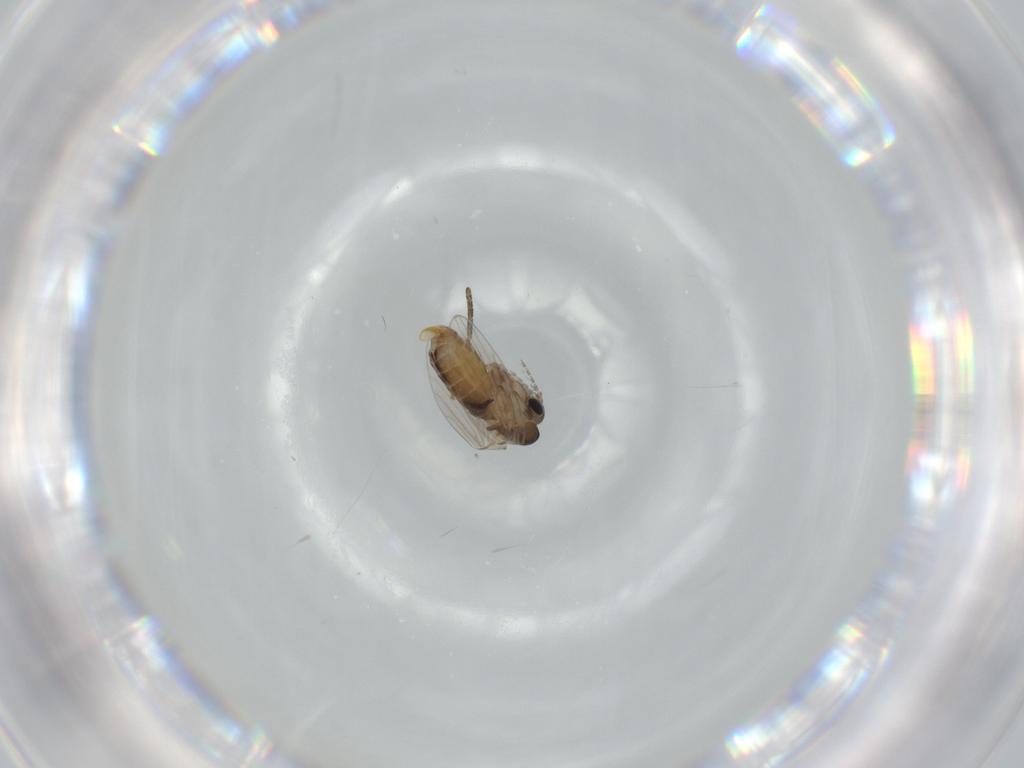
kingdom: Animalia
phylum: Arthropoda
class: Insecta
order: Diptera
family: Psychodidae
